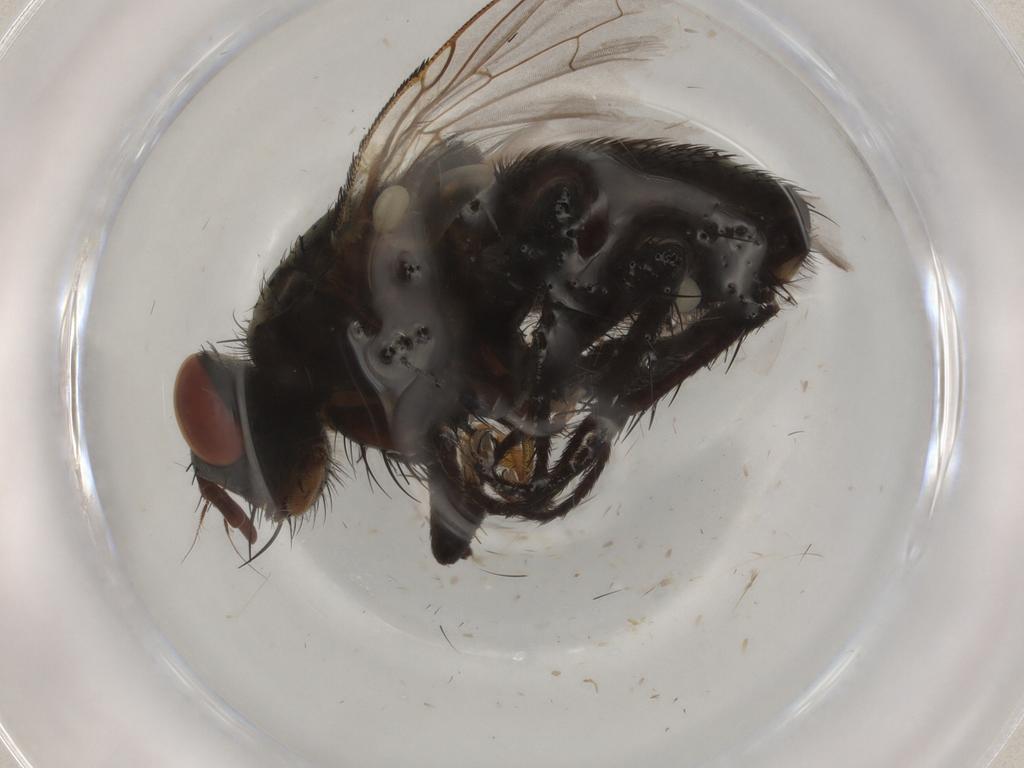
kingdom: Animalia
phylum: Arthropoda
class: Insecta
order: Diptera
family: Sarcophagidae
